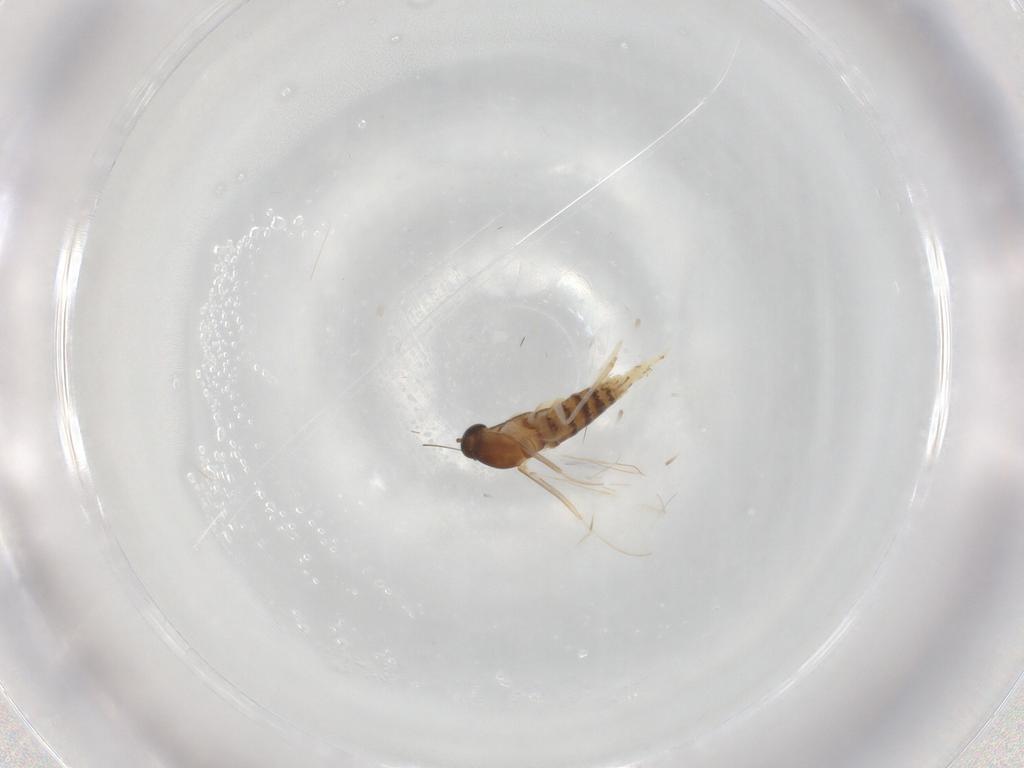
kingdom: Animalia
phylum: Arthropoda
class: Insecta
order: Diptera
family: Cecidomyiidae
